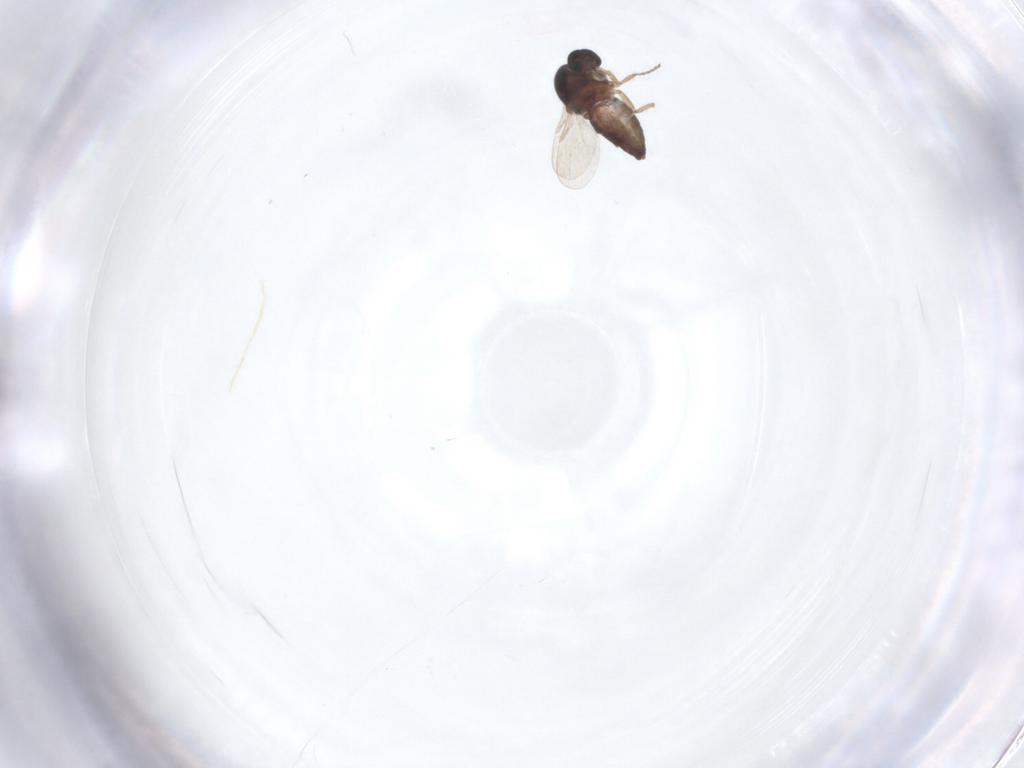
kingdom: Animalia
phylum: Arthropoda
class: Insecta
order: Diptera
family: Ceratopogonidae
